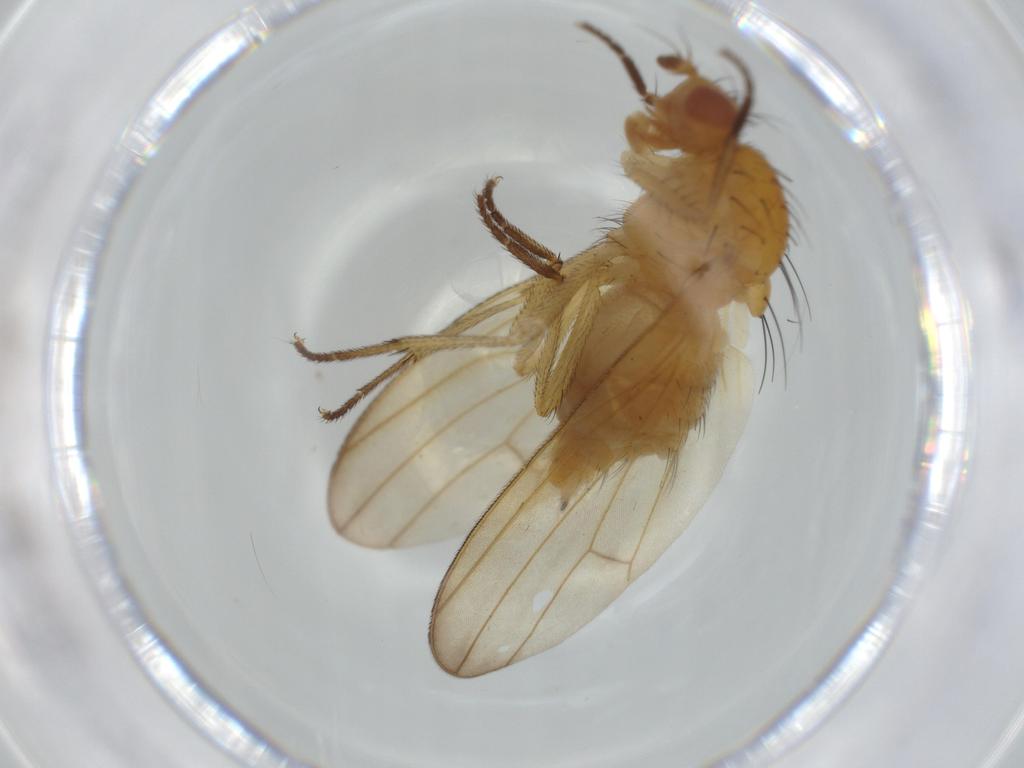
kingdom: Animalia
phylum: Arthropoda
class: Insecta
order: Diptera
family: Lauxaniidae
